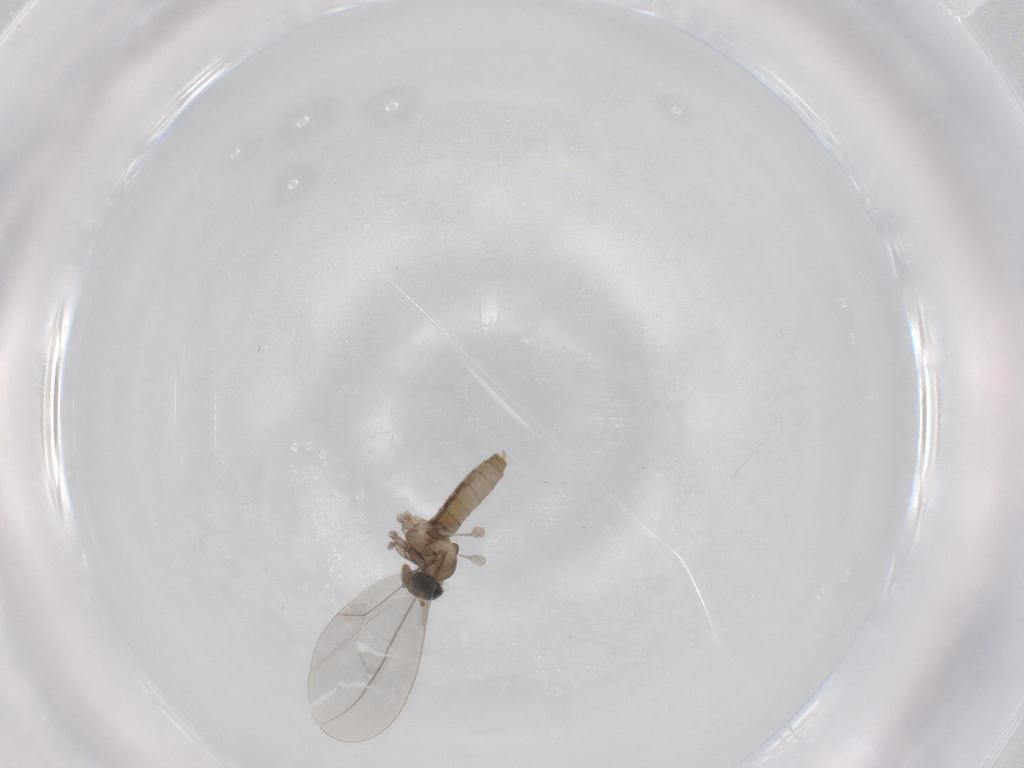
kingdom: Animalia
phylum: Arthropoda
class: Insecta
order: Diptera
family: Cecidomyiidae
